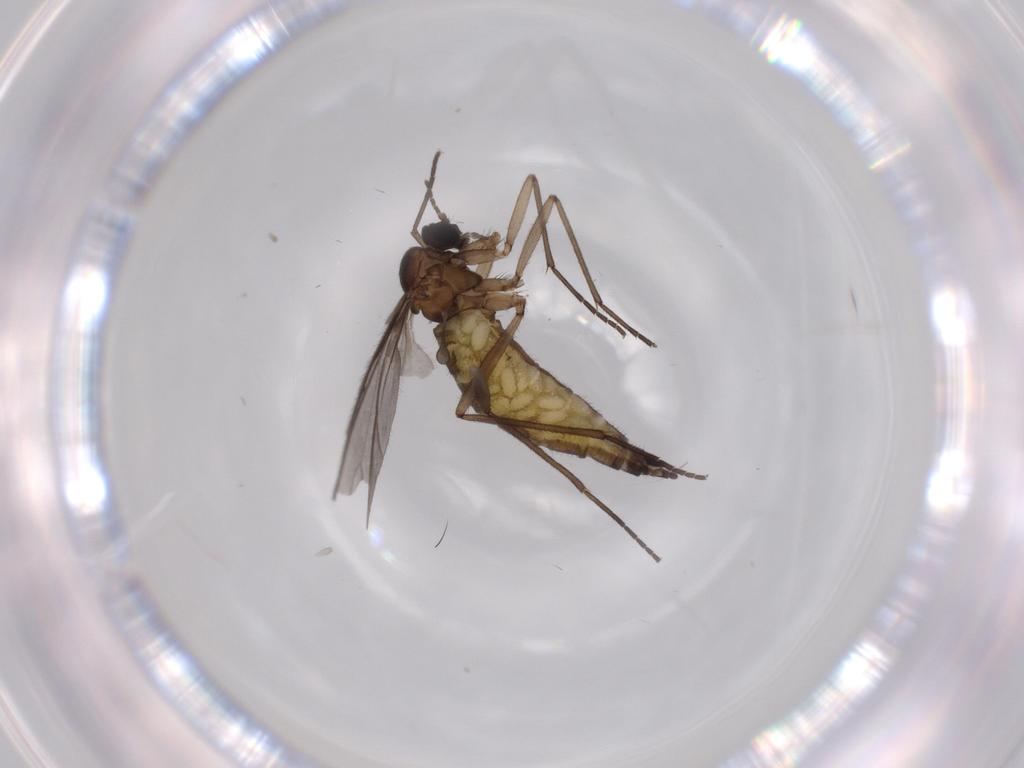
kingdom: Animalia
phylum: Arthropoda
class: Insecta
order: Diptera
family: Sciaridae
